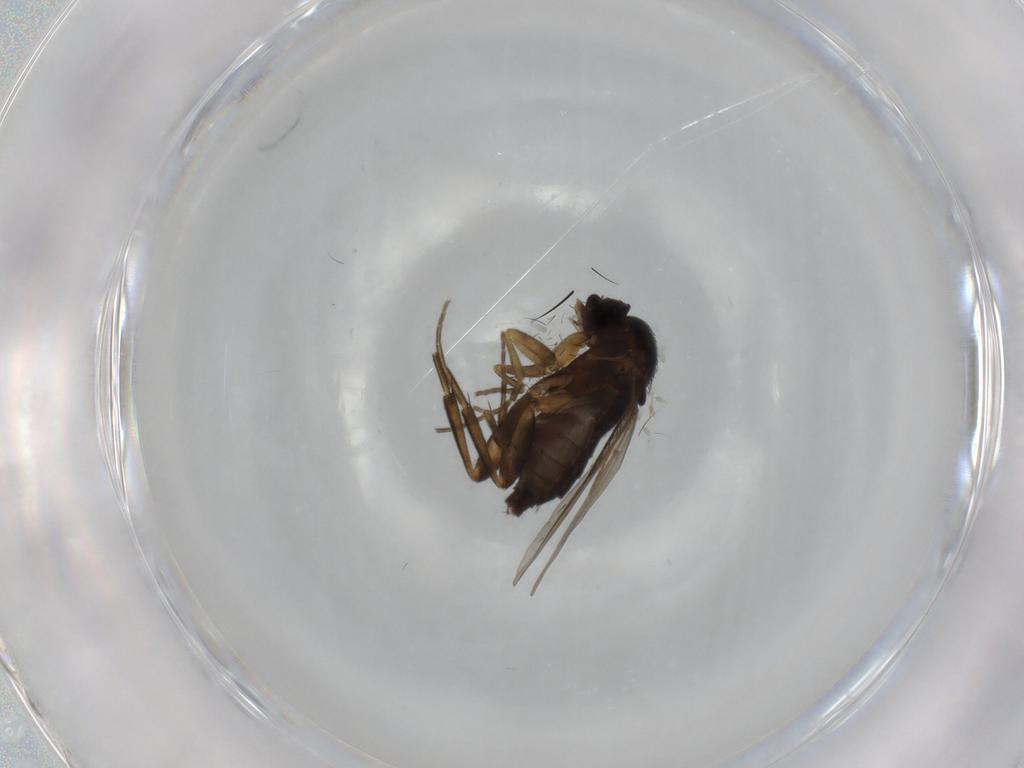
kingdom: Animalia
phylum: Arthropoda
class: Insecta
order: Diptera
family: Phoridae
